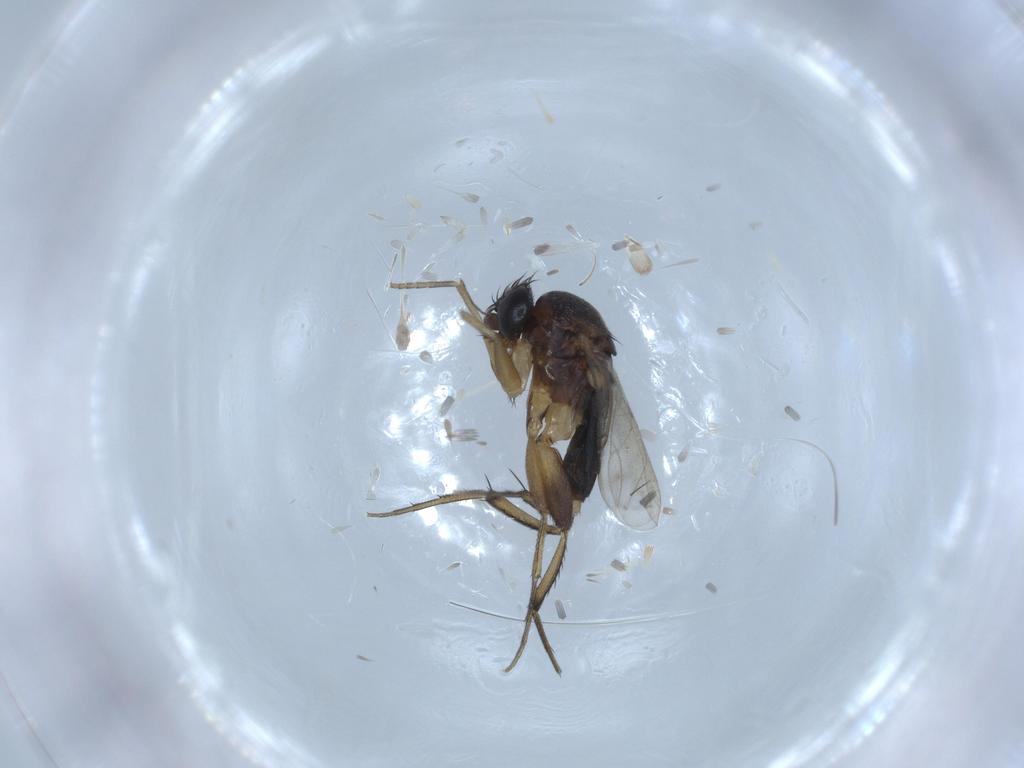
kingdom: Animalia
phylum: Arthropoda
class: Insecta
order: Diptera
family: Phoridae
